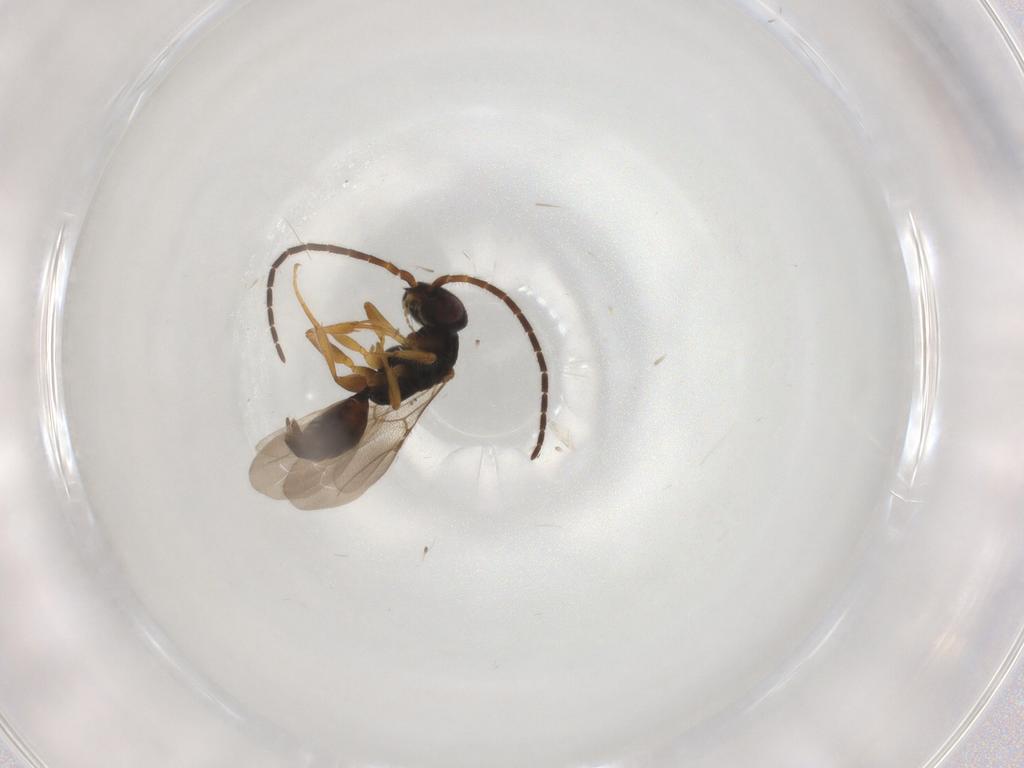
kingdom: Animalia
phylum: Arthropoda
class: Insecta
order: Hymenoptera
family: Bethylidae
